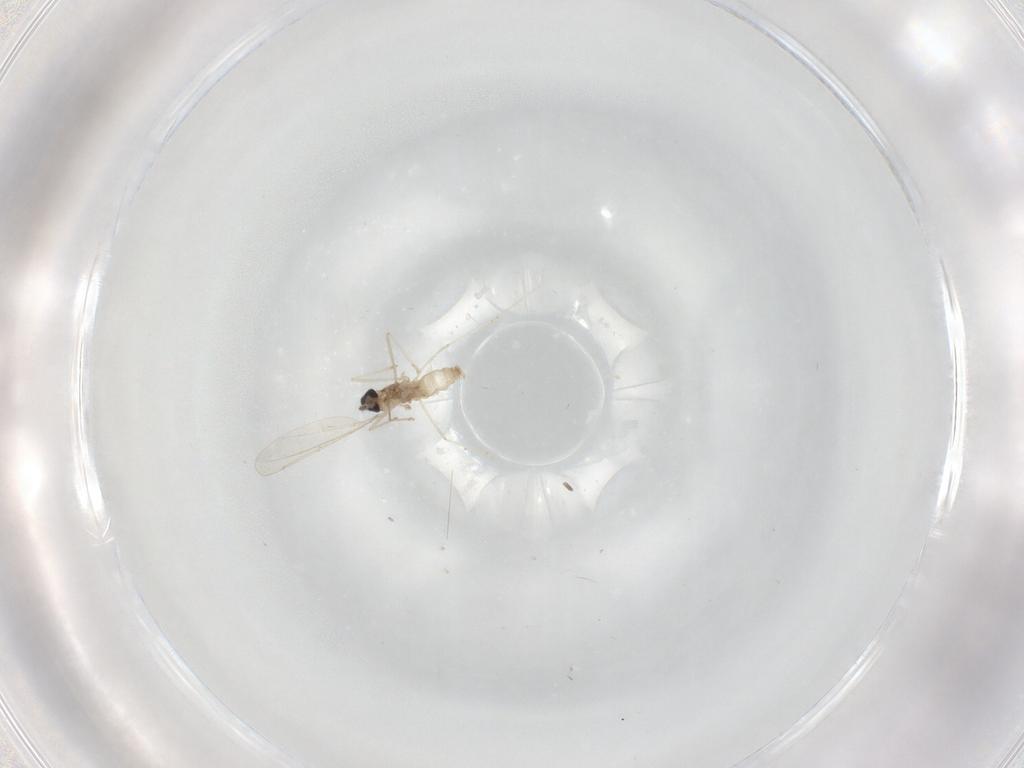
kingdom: Animalia
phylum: Arthropoda
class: Insecta
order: Diptera
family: Cecidomyiidae
